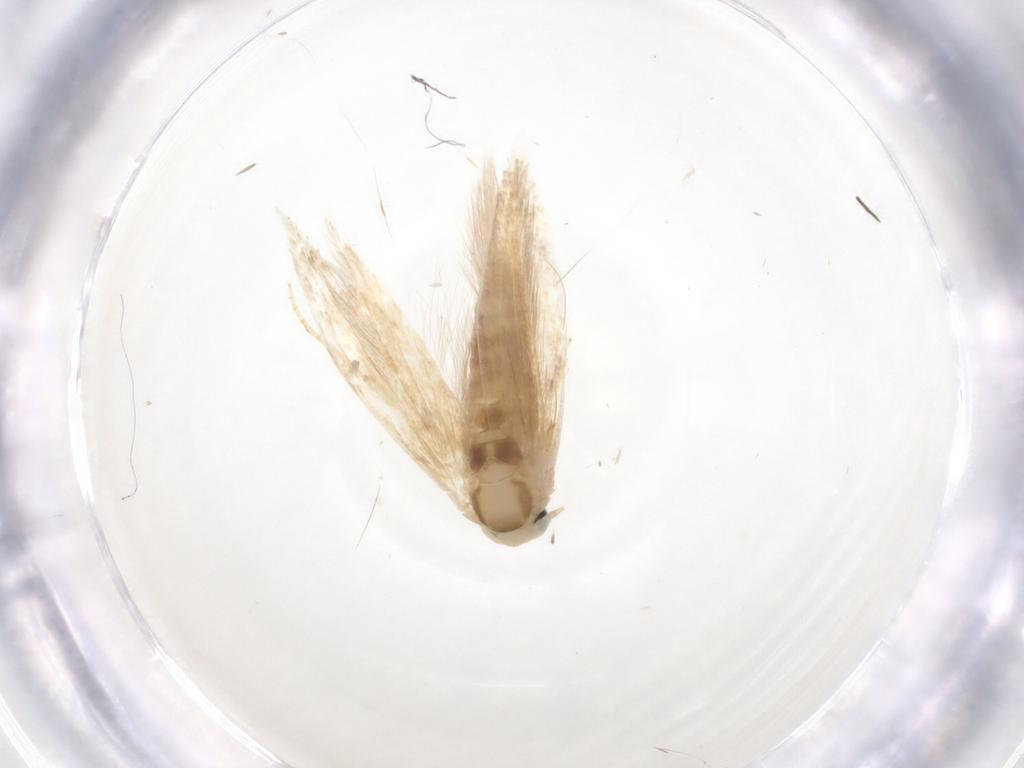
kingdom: Animalia
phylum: Arthropoda
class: Insecta
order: Lepidoptera
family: Bucculatricidae
